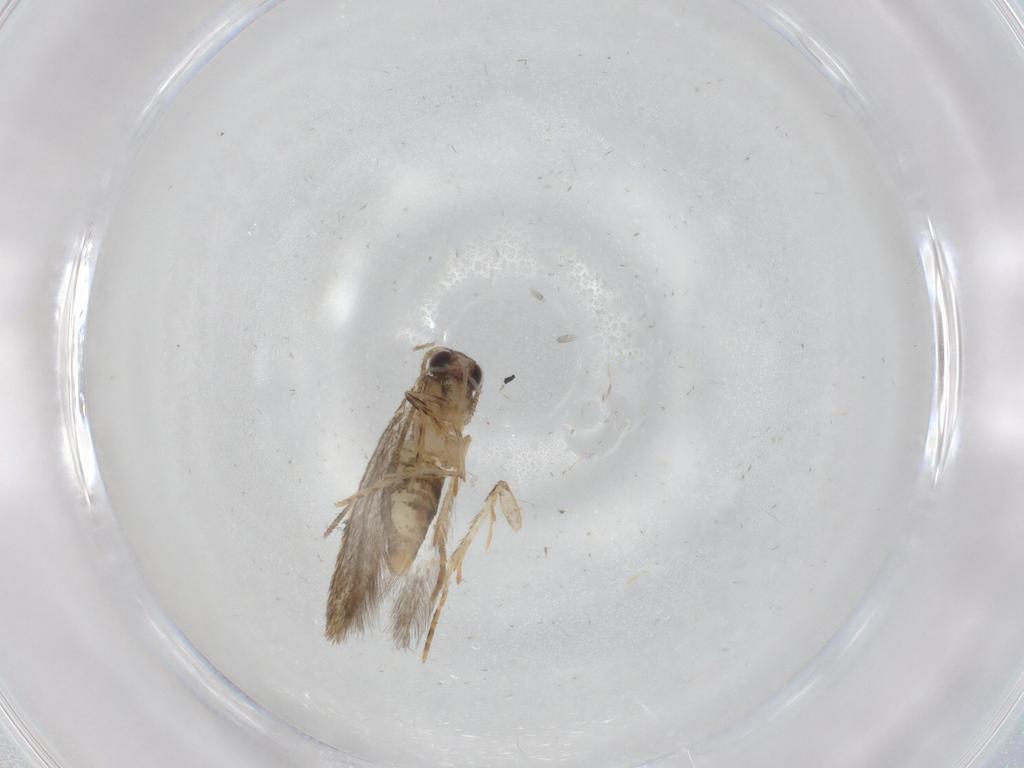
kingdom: Animalia
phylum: Arthropoda
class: Insecta
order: Lepidoptera
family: Tineidae
